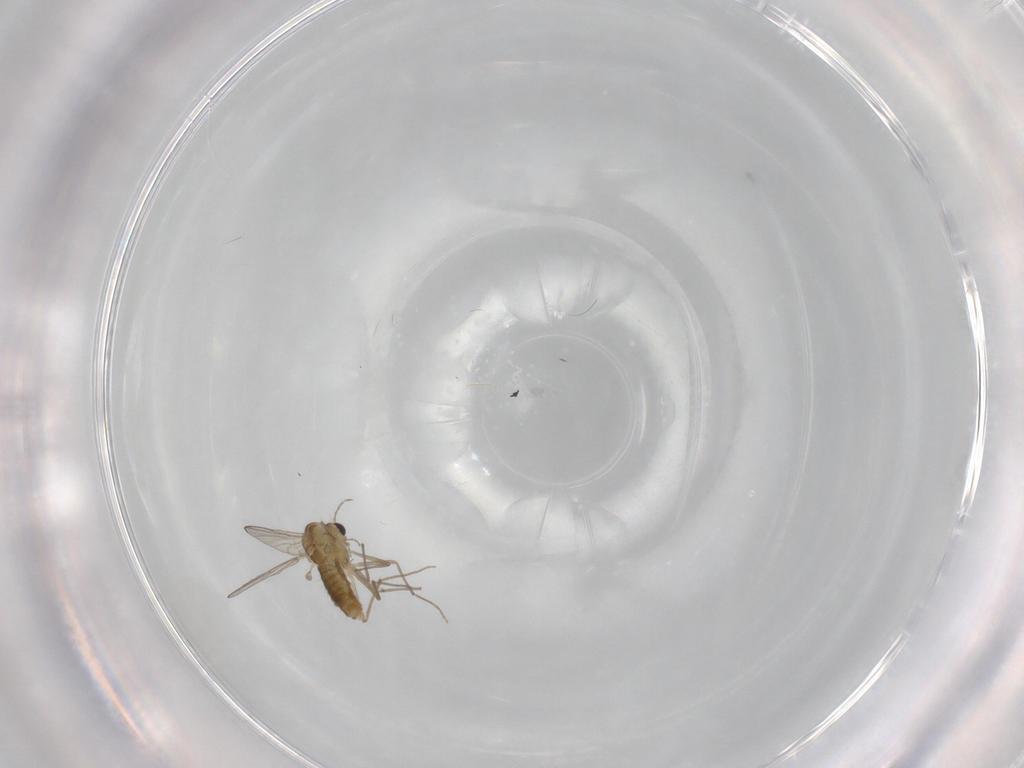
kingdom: Animalia
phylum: Arthropoda
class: Insecta
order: Diptera
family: Chironomidae
